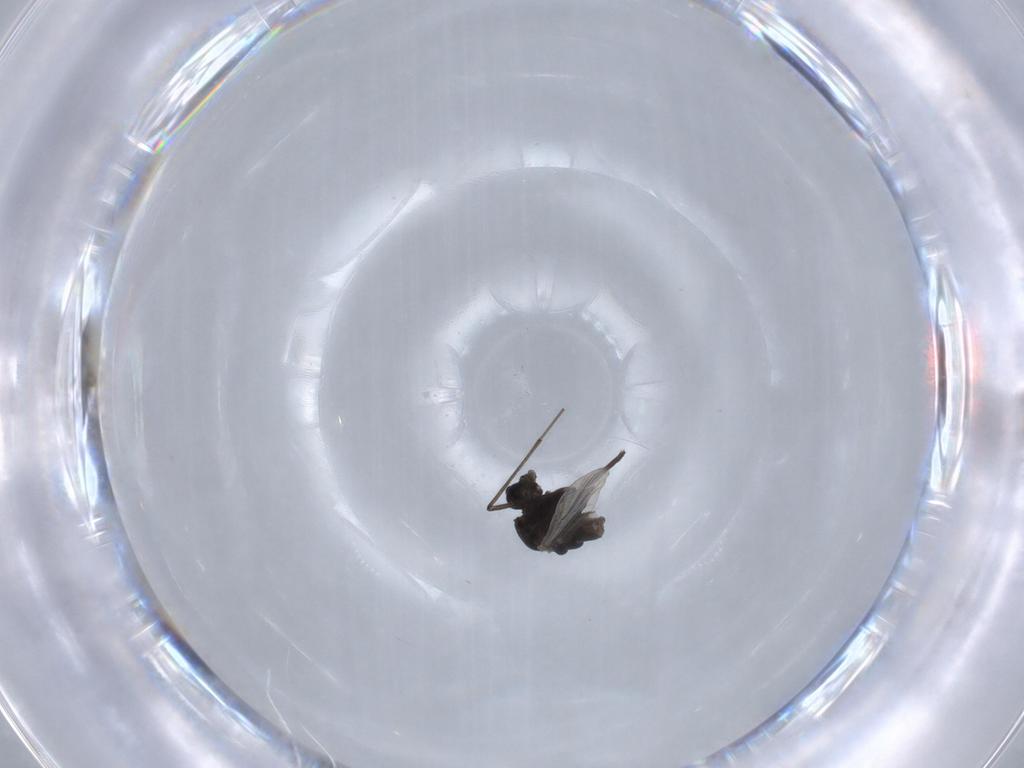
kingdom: Animalia
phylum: Arthropoda
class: Insecta
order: Diptera
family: Chironomidae
